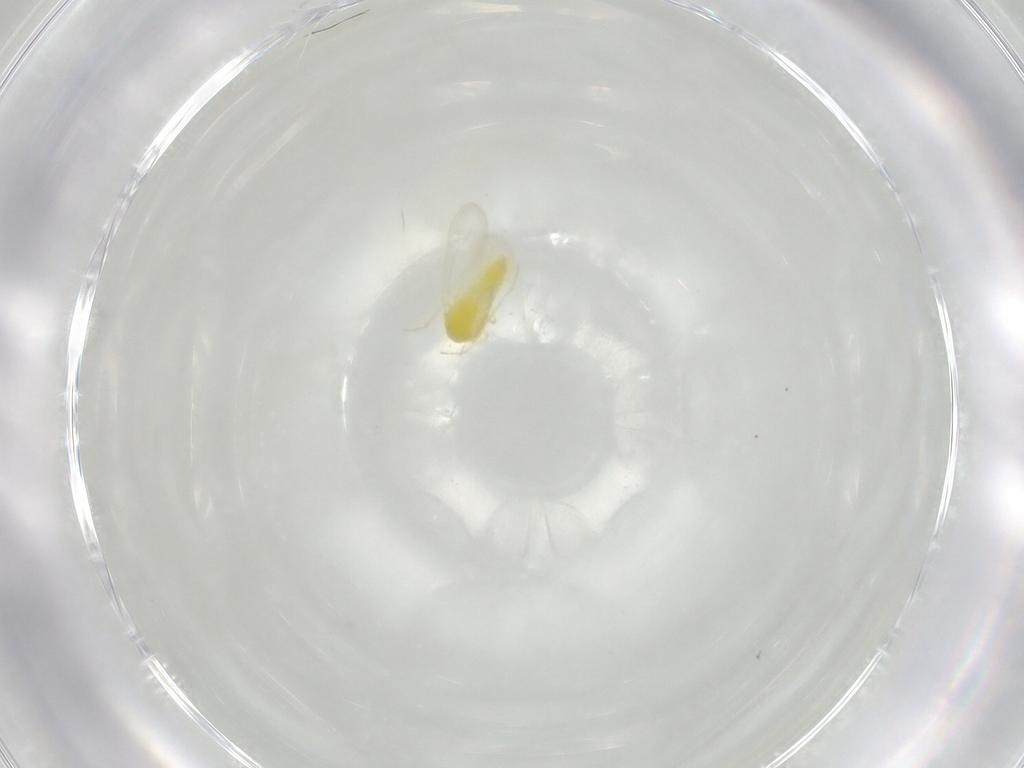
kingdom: Animalia
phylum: Arthropoda
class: Insecta
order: Hemiptera
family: Aleyrodidae
